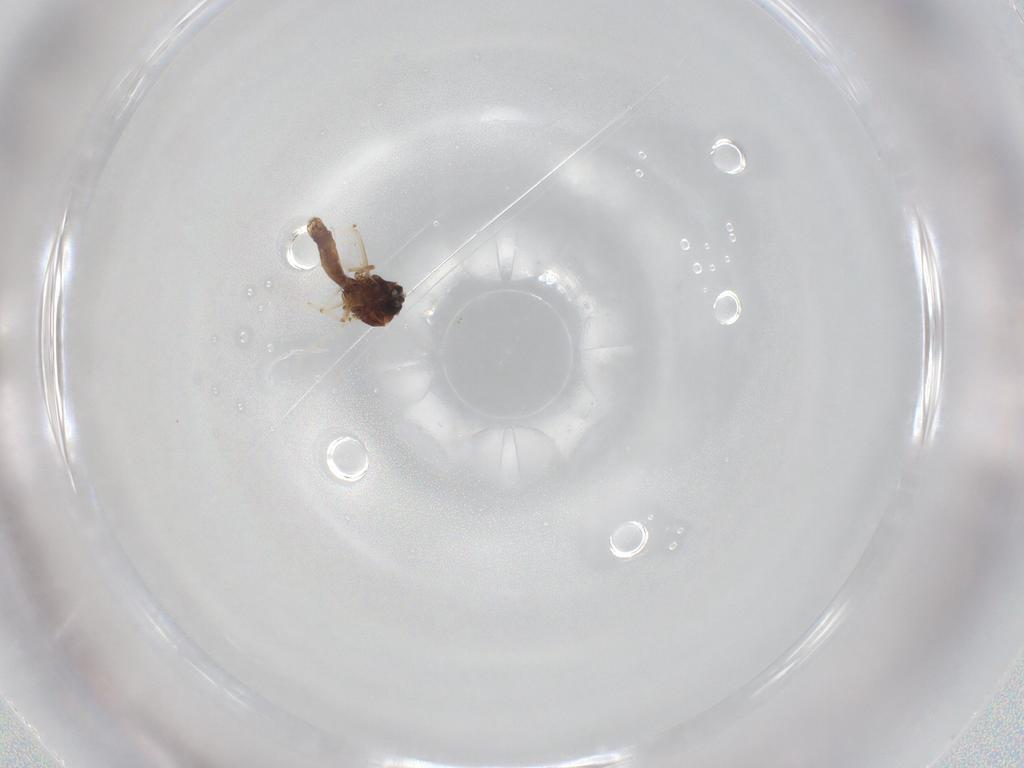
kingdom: Animalia
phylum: Arthropoda
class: Insecta
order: Diptera
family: Ceratopogonidae
